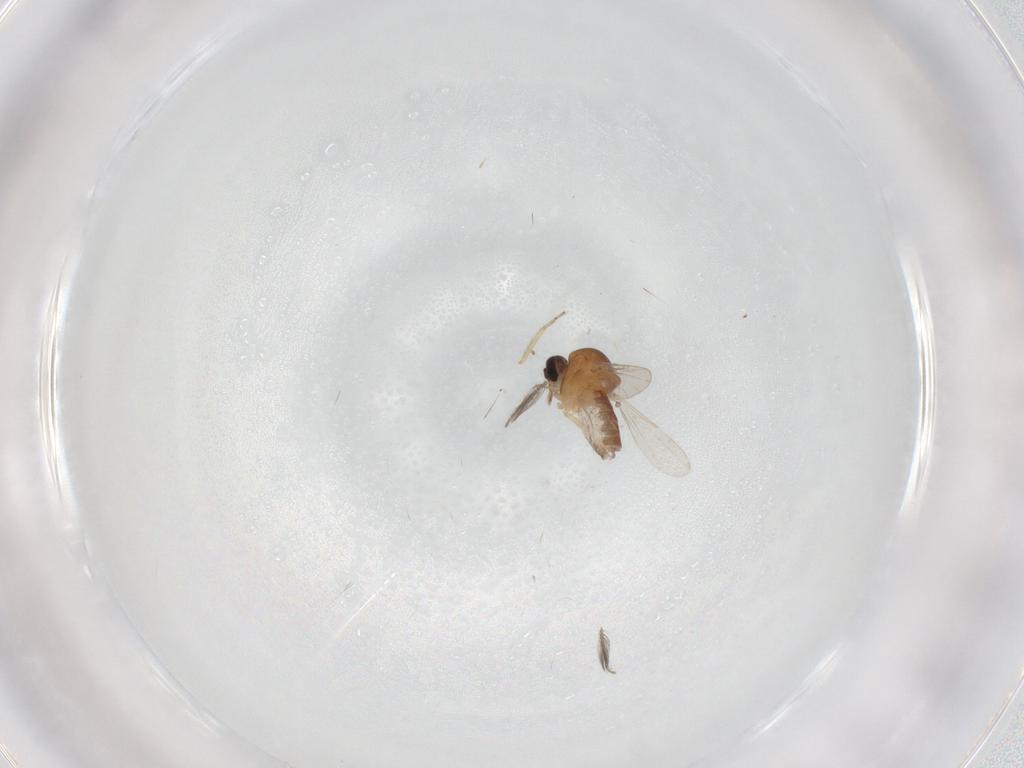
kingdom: Animalia
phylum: Arthropoda
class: Insecta
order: Diptera
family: Ceratopogonidae
